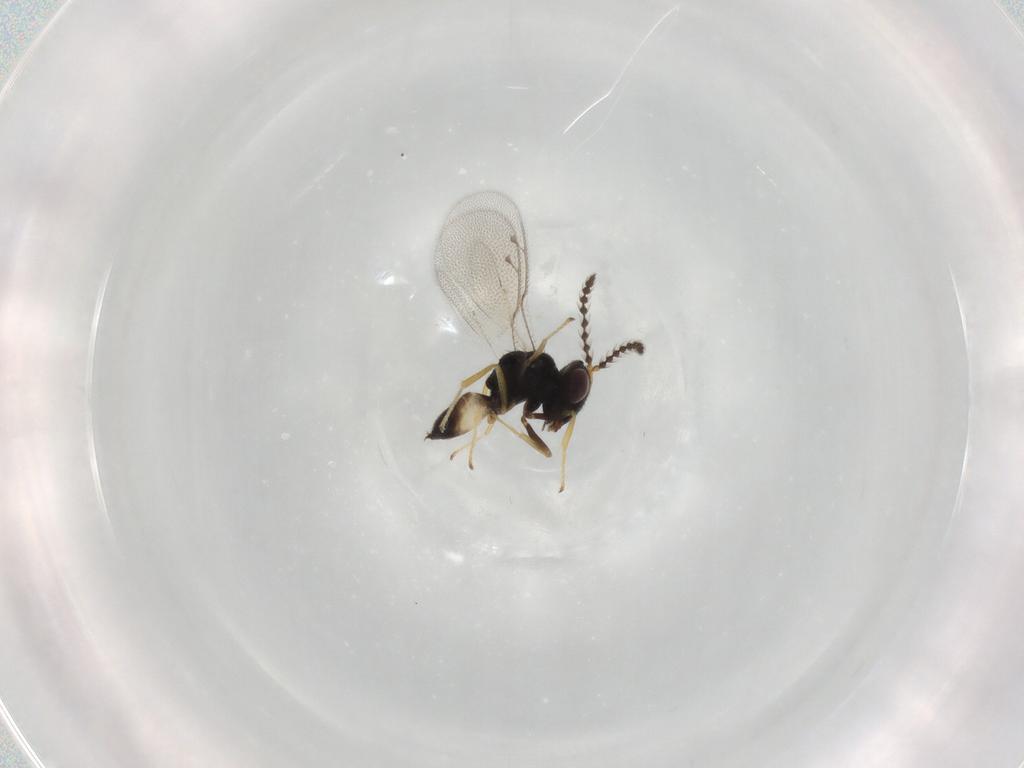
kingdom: Animalia
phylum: Arthropoda
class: Insecta
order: Hymenoptera
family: Pteromalidae
